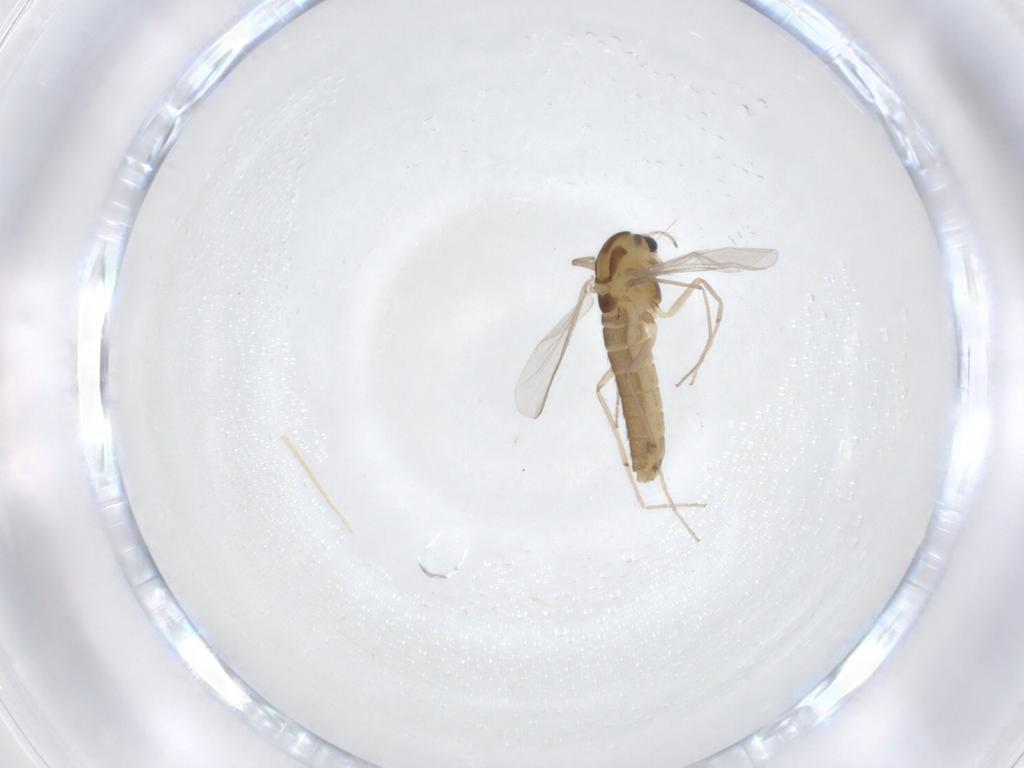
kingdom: Animalia
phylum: Arthropoda
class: Insecta
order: Diptera
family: Chironomidae
